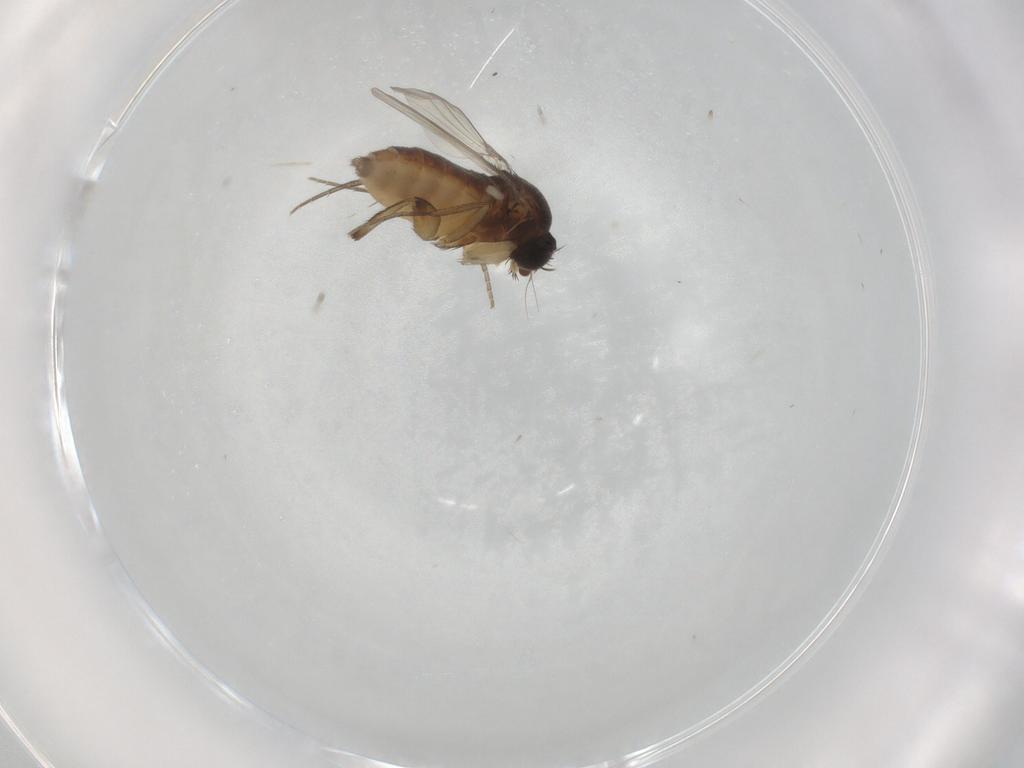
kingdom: Animalia
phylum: Arthropoda
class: Insecta
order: Diptera
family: Phoridae
